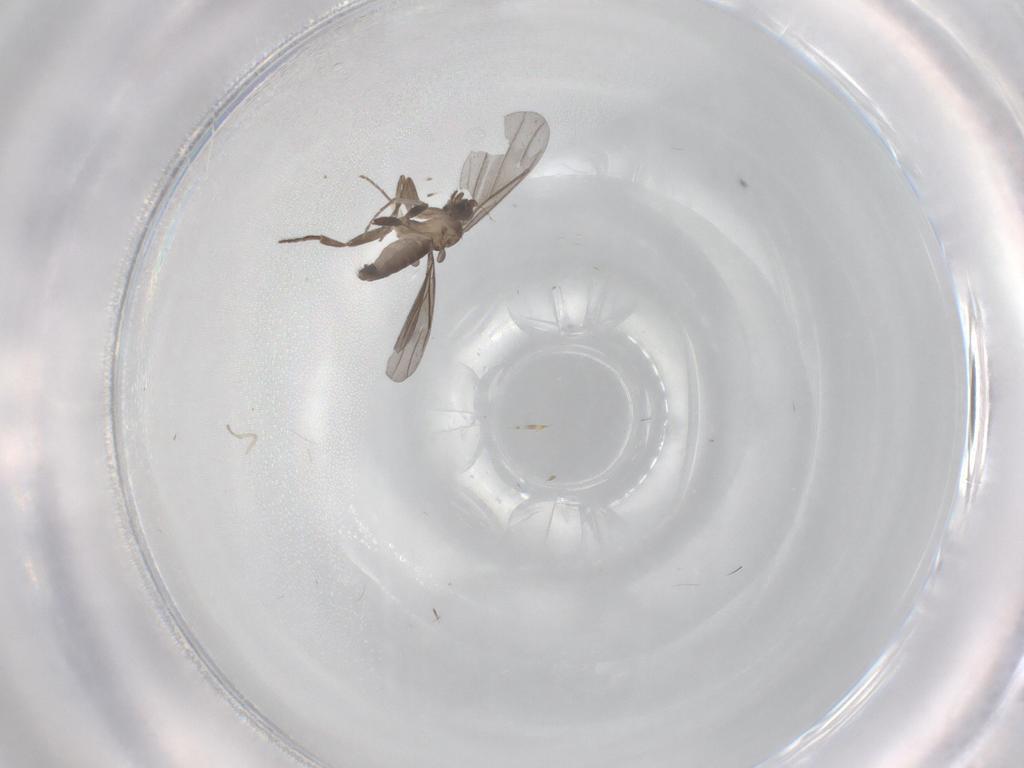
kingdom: Animalia
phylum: Arthropoda
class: Insecta
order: Diptera
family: Phoridae
